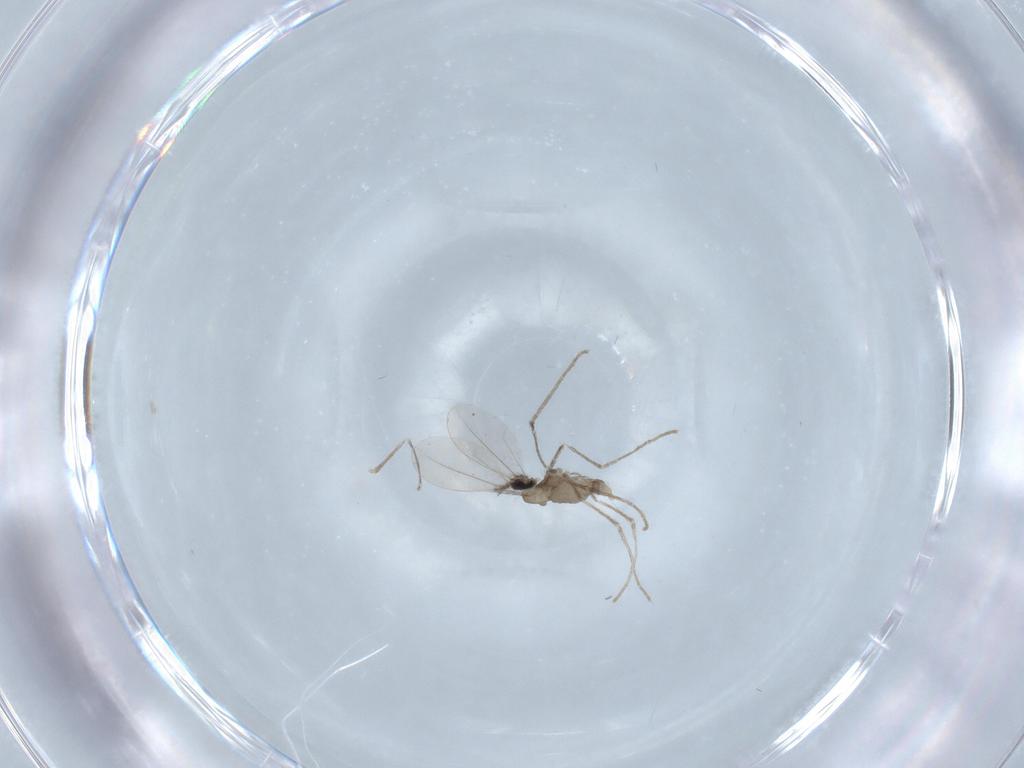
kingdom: Animalia
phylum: Arthropoda
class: Insecta
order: Diptera
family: Cecidomyiidae
